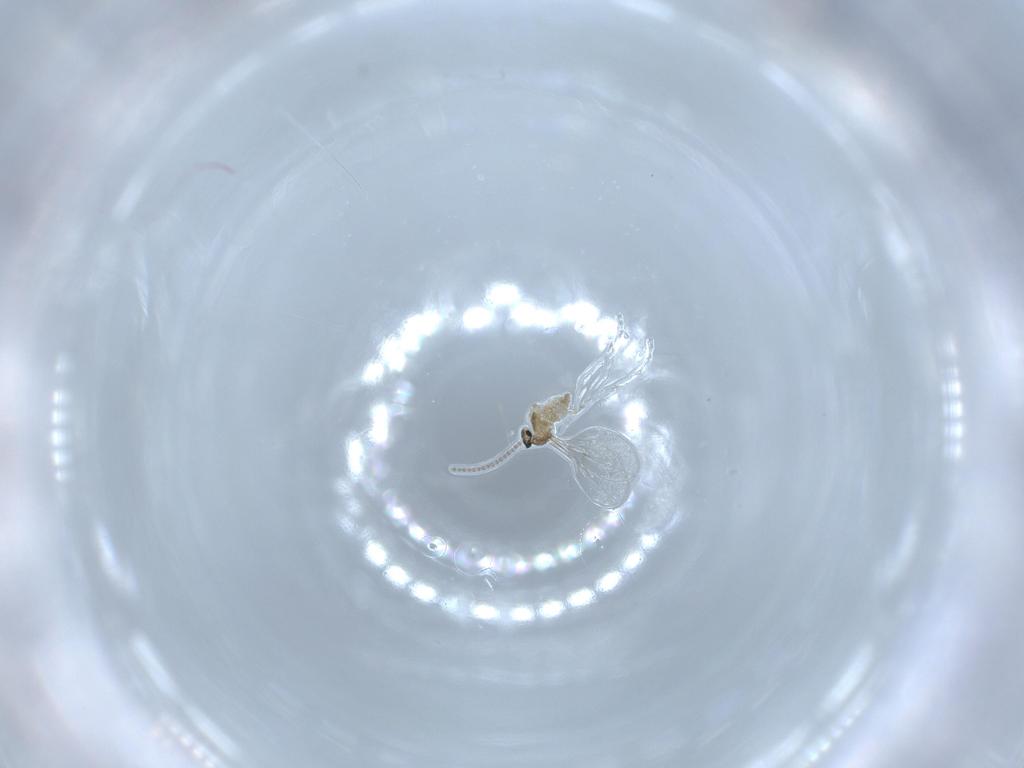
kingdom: Animalia
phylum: Arthropoda
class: Insecta
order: Diptera
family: Cecidomyiidae
